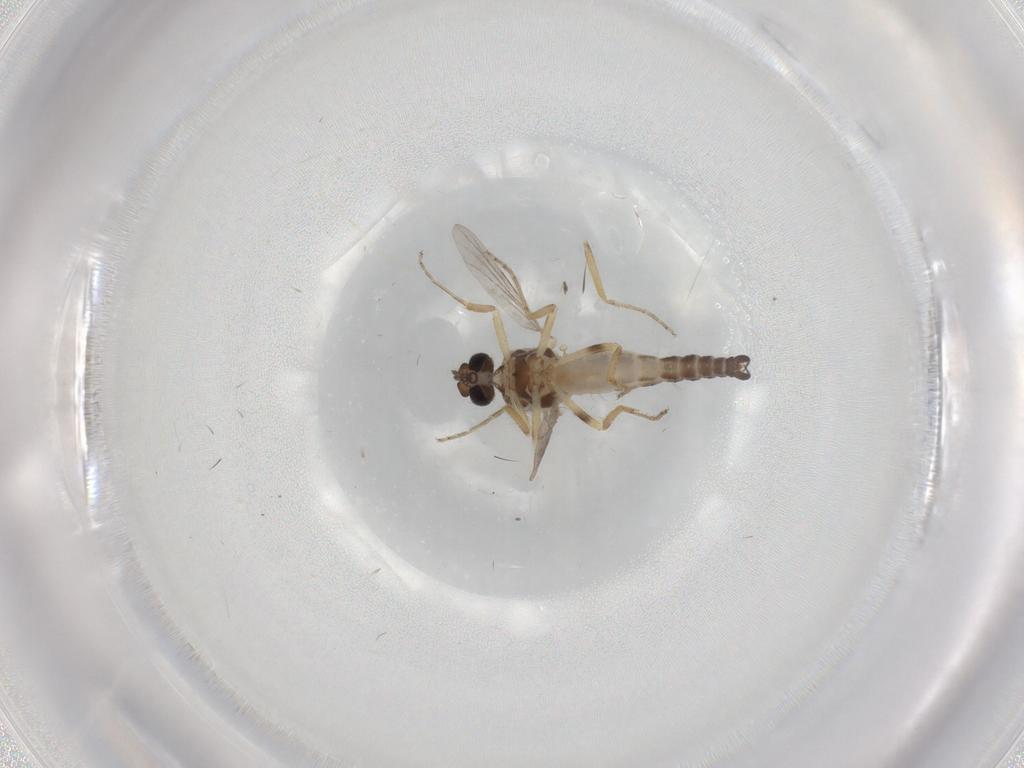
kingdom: Animalia
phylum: Arthropoda
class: Insecta
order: Diptera
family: Ceratopogonidae
